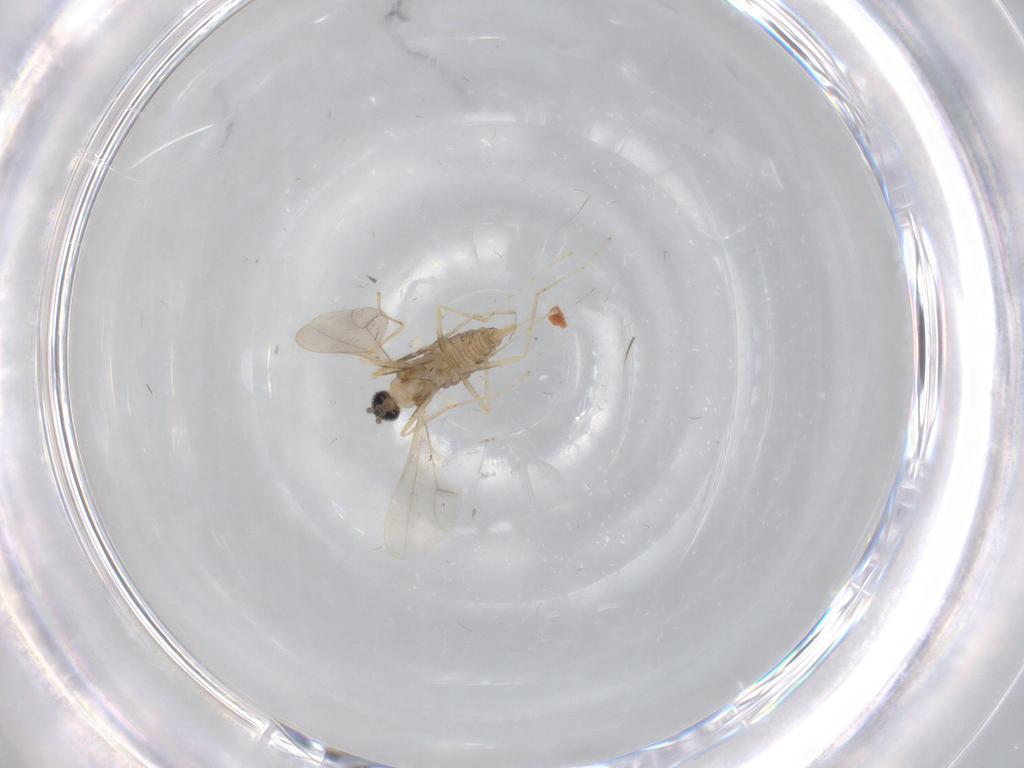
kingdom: Animalia
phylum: Arthropoda
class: Insecta
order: Diptera
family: Cecidomyiidae
